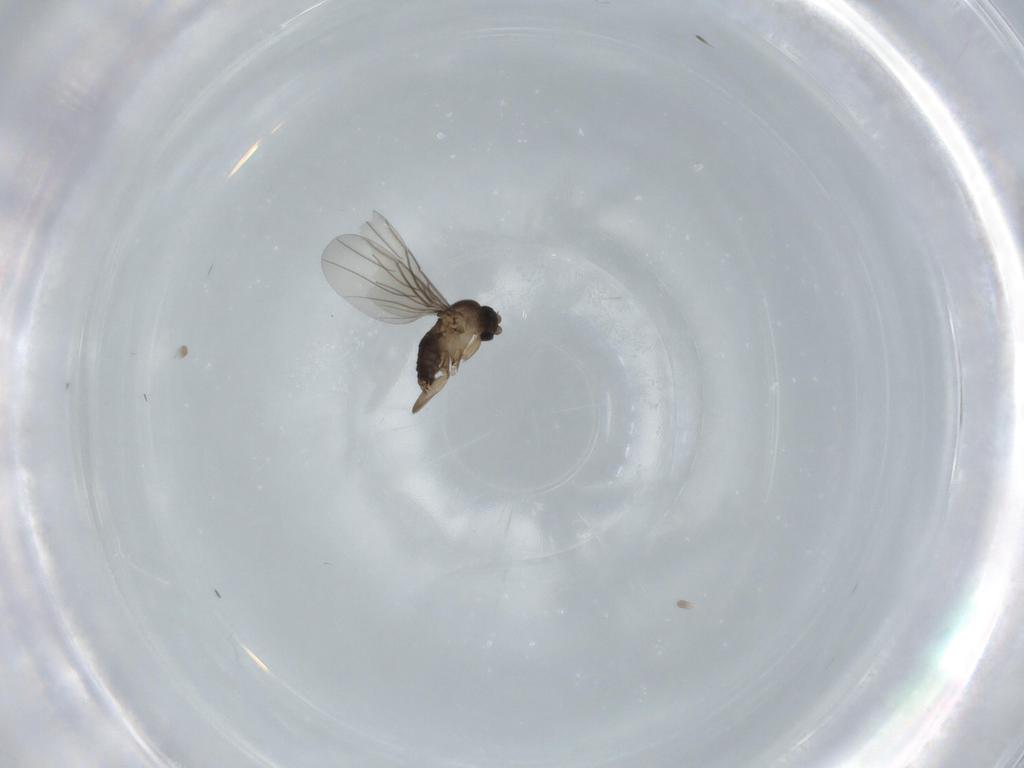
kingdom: Animalia
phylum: Arthropoda
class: Insecta
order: Diptera
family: Phoridae
